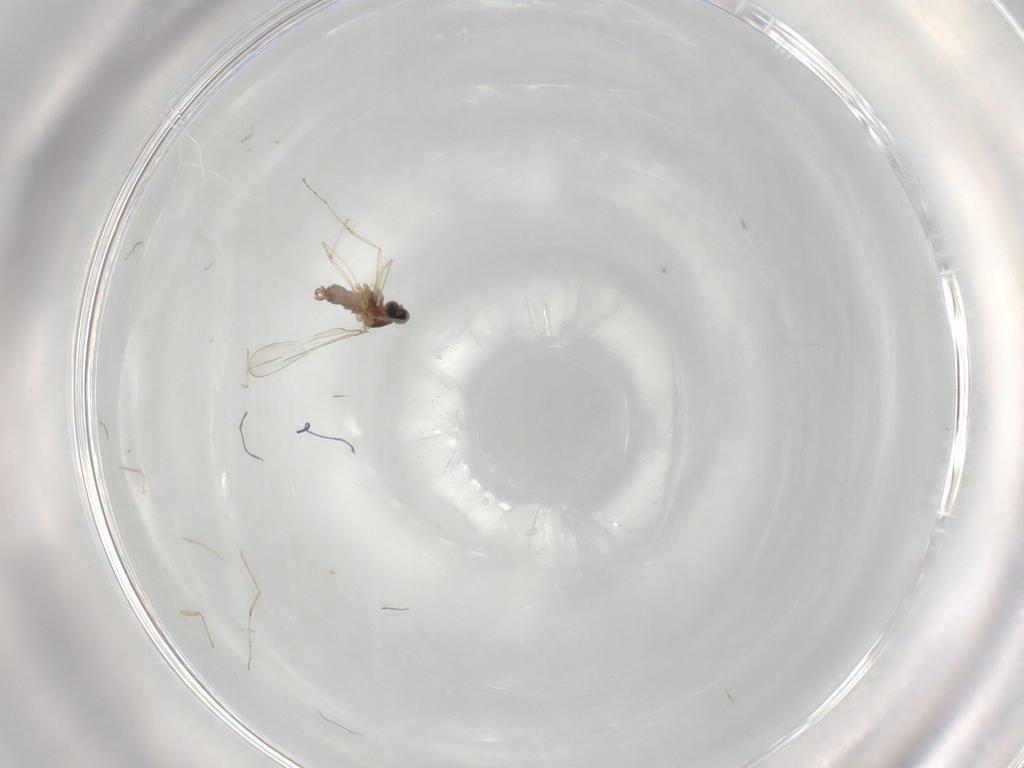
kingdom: Animalia
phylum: Arthropoda
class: Insecta
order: Diptera
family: Cecidomyiidae
